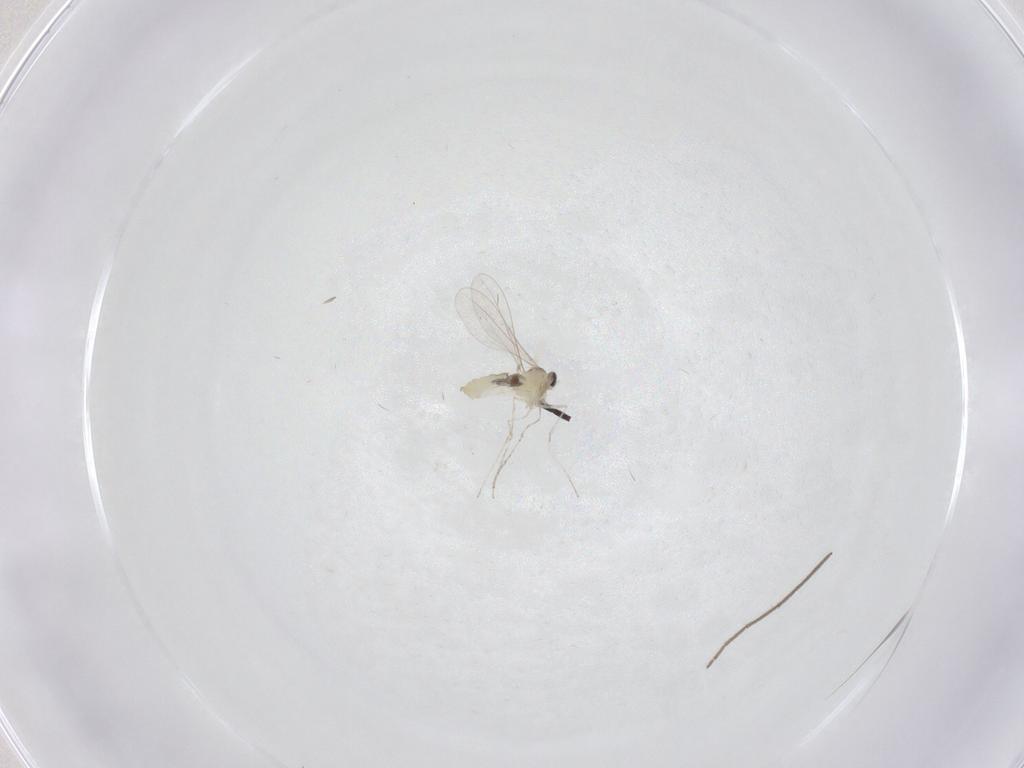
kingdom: Animalia
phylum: Arthropoda
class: Insecta
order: Diptera
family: Chironomidae
